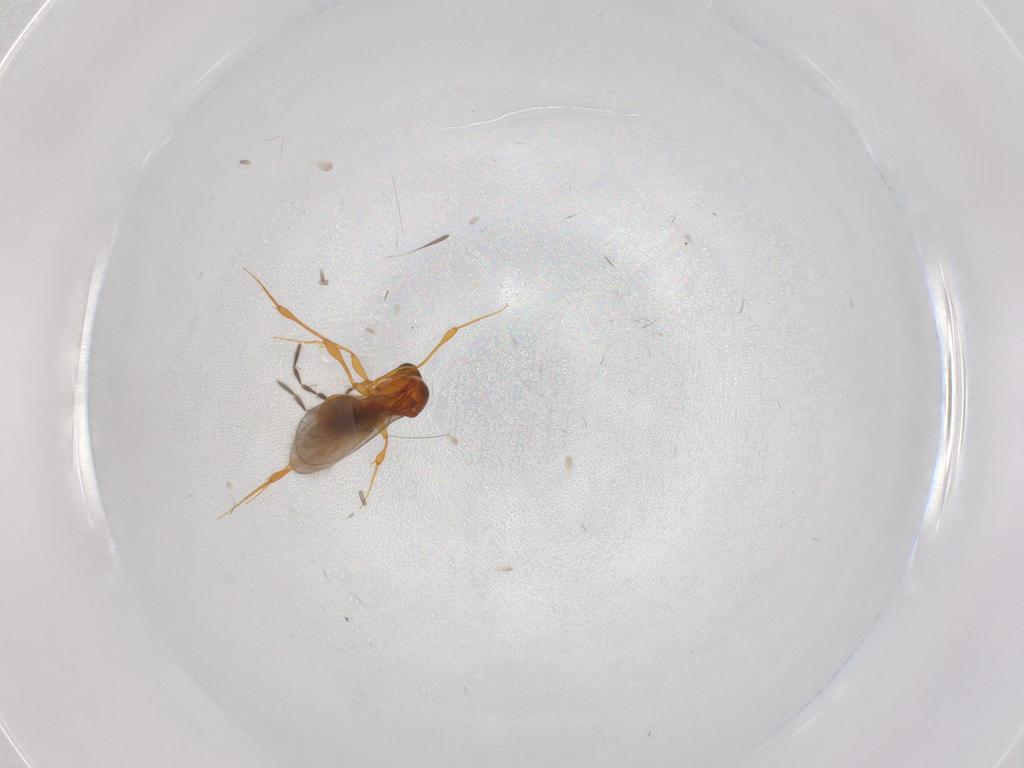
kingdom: Animalia
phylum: Arthropoda
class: Insecta
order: Hymenoptera
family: Platygastridae
